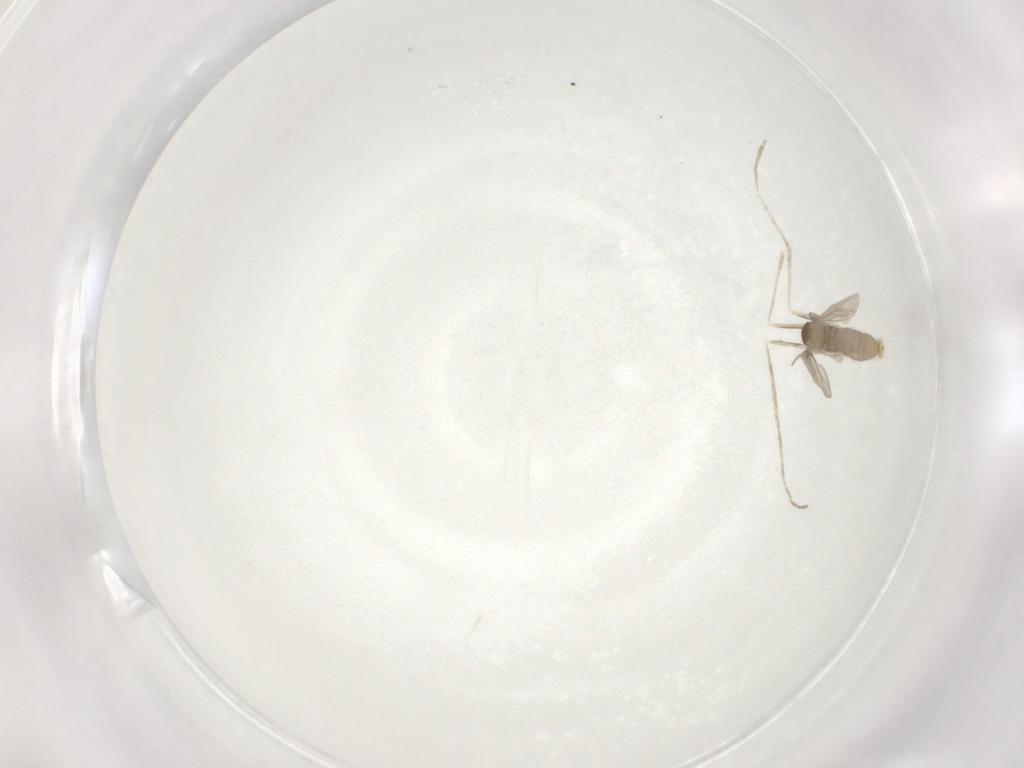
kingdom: Animalia
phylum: Arthropoda
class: Insecta
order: Diptera
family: Cecidomyiidae
